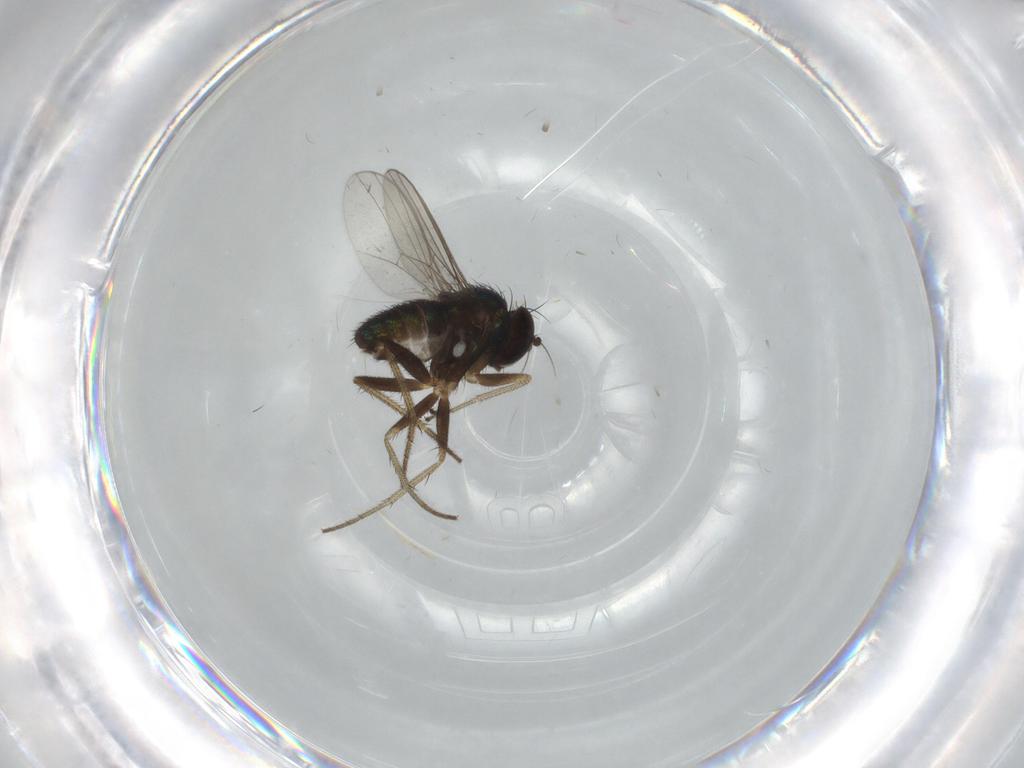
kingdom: Animalia
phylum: Arthropoda
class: Insecta
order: Diptera
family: Dolichopodidae
